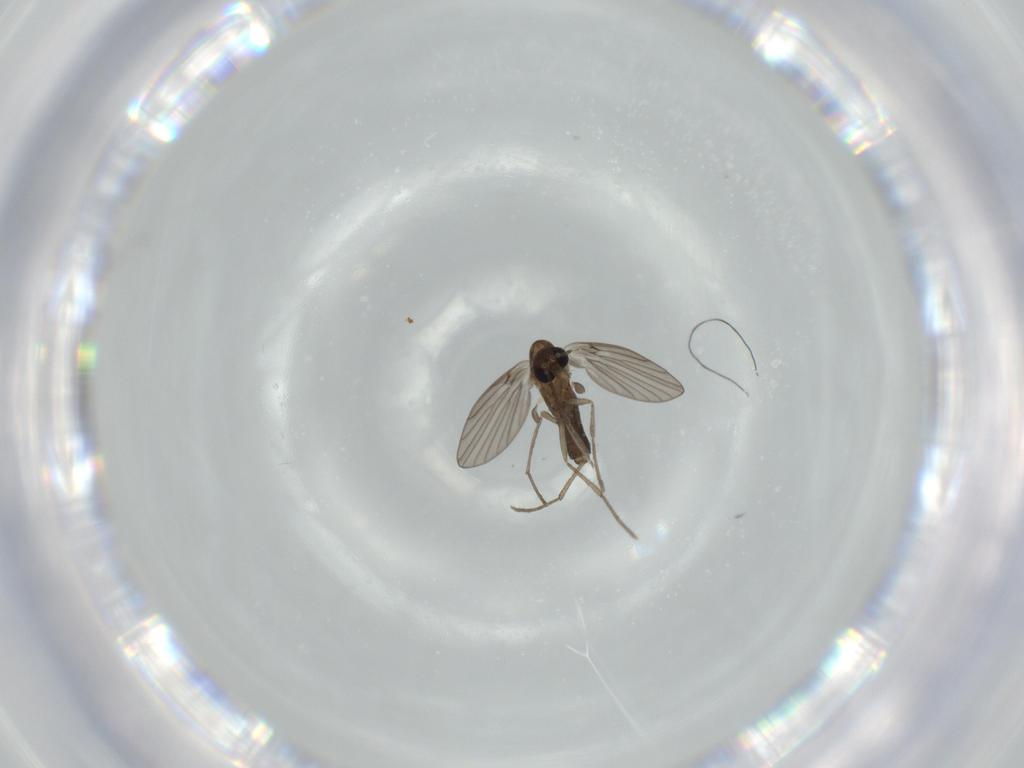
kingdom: Animalia
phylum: Arthropoda
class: Insecta
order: Diptera
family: Psychodidae
